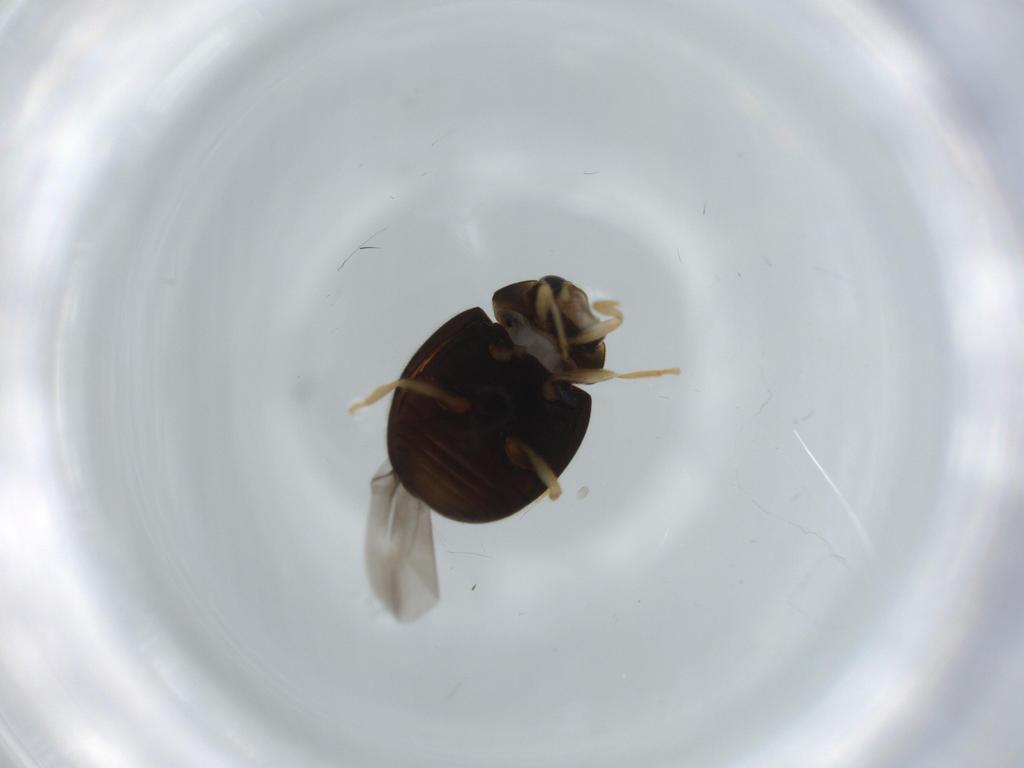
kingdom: Animalia
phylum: Arthropoda
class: Insecta
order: Coleoptera
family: Coccinellidae
